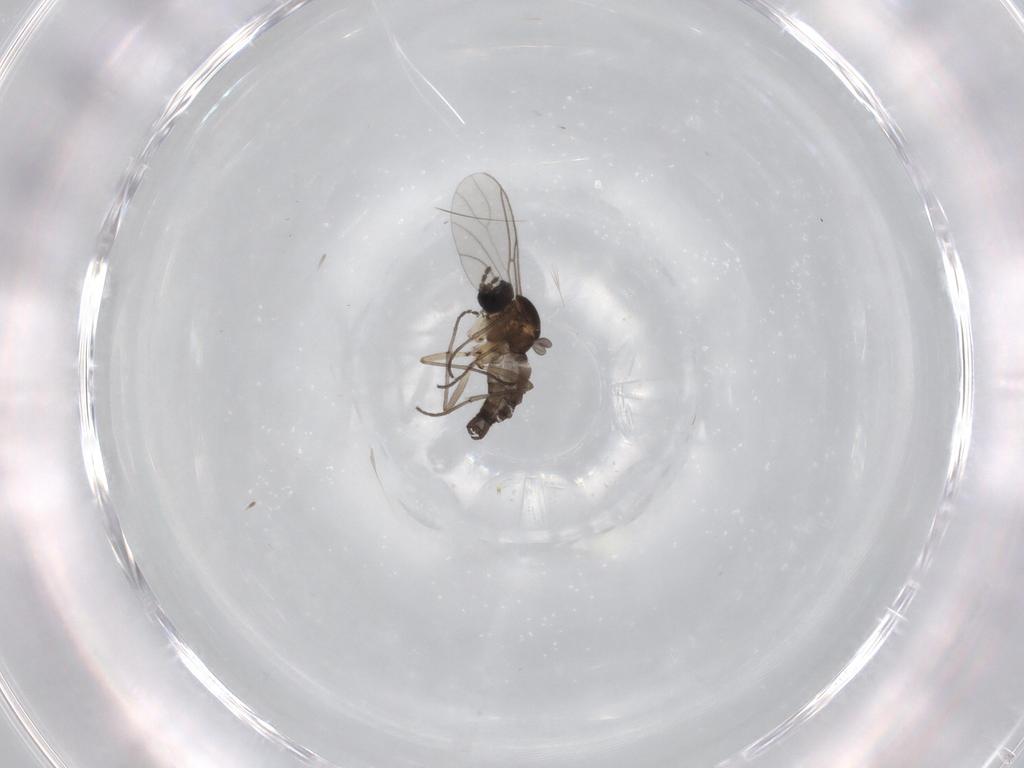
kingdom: Animalia
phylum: Arthropoda
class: Insecta
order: Diptera
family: Sciaridae
